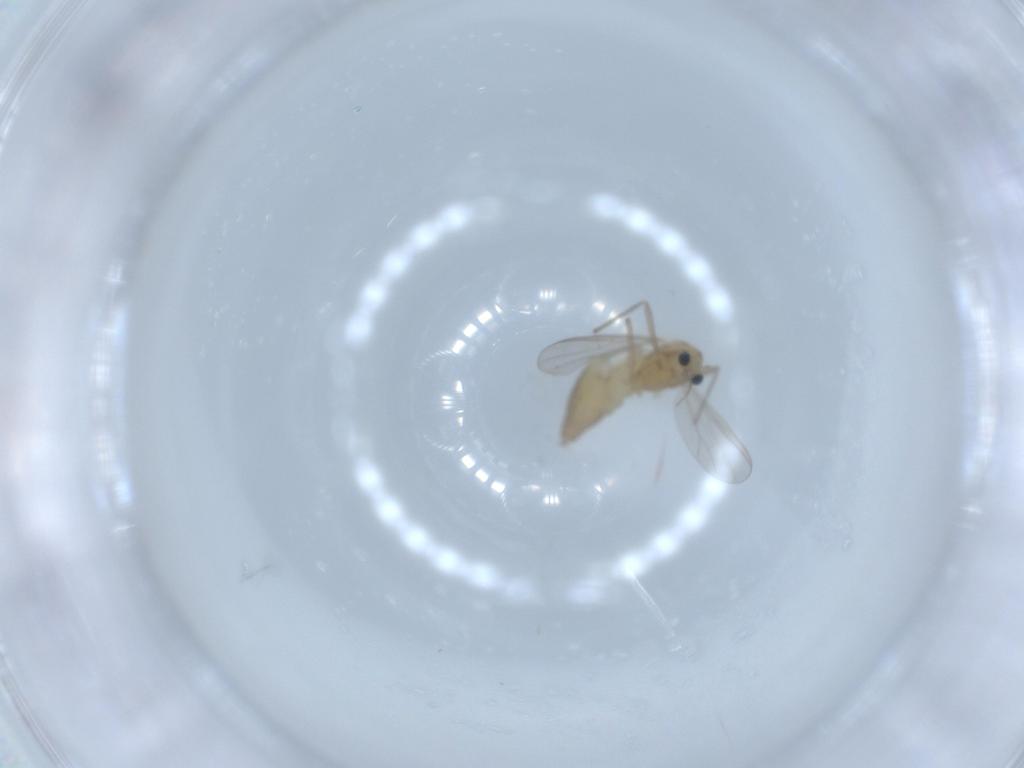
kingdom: Animalia
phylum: Arthropoda
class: Insecta
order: Diptera
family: Chironomidae
